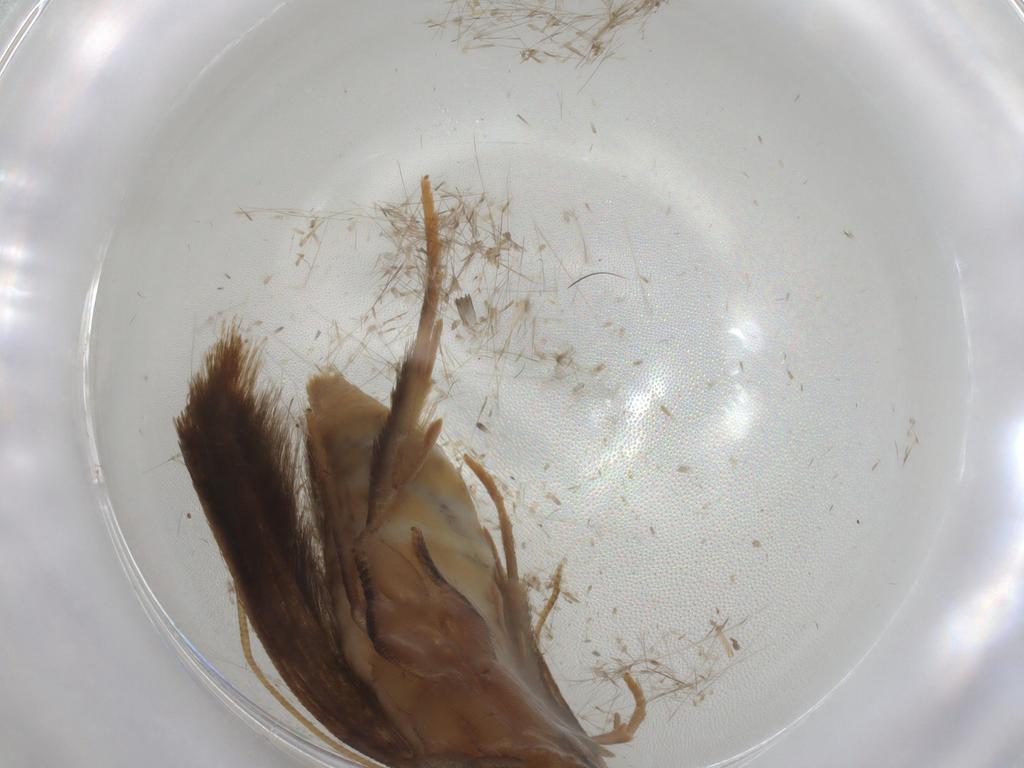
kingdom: Animalia
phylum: Arthropoda
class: Insecta
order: Lepidoptera
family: Tineidae
